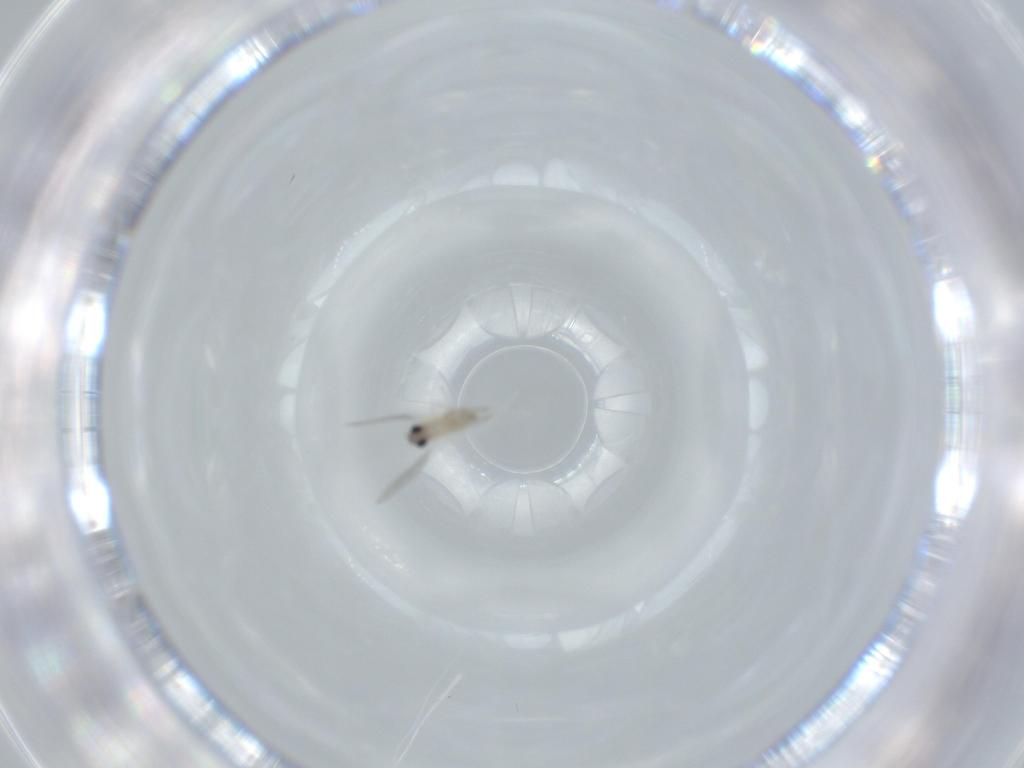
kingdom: Animalia
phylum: Arthropoda
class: Insecta
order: Diptera
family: Cecidomyiidae
